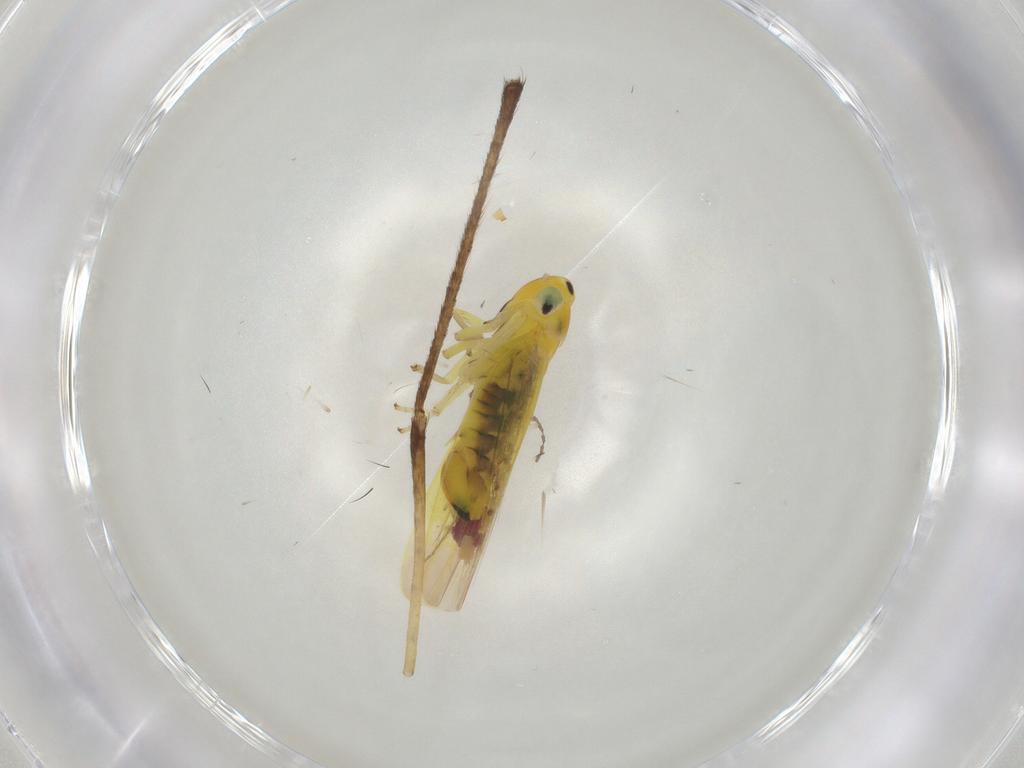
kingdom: Animalia
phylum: Arthropoda
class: Insecta
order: Hemiptera
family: Cicadellidae
